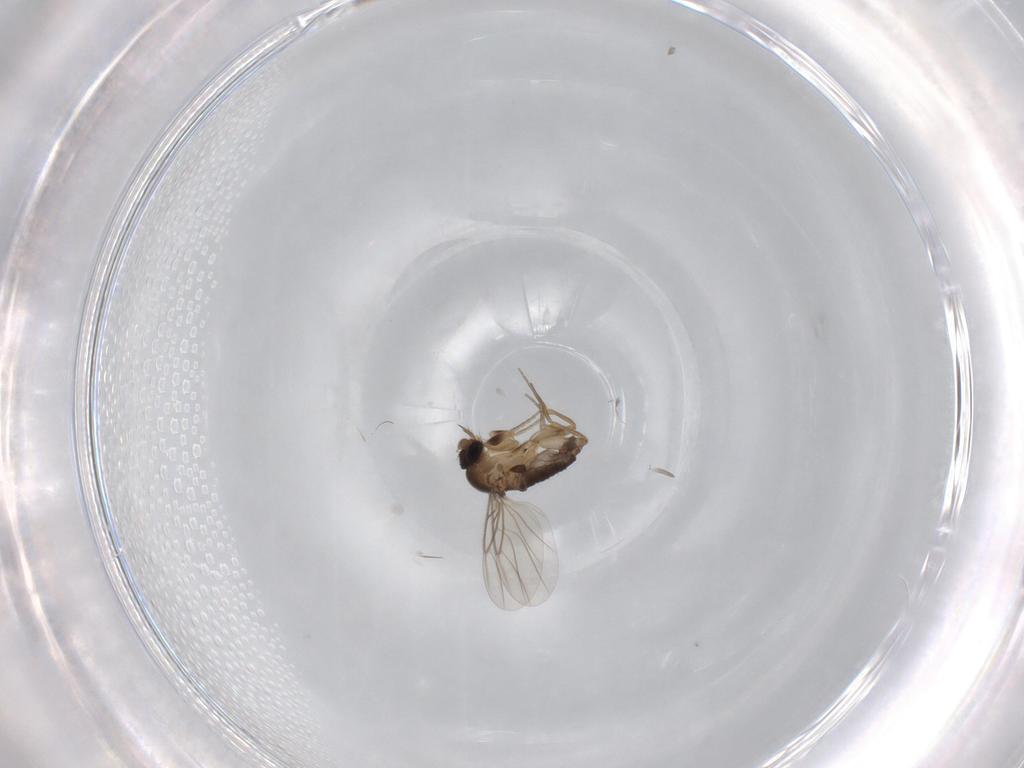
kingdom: Animalia
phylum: Arthropoda
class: Insecta
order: Diptera
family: Phoridae
